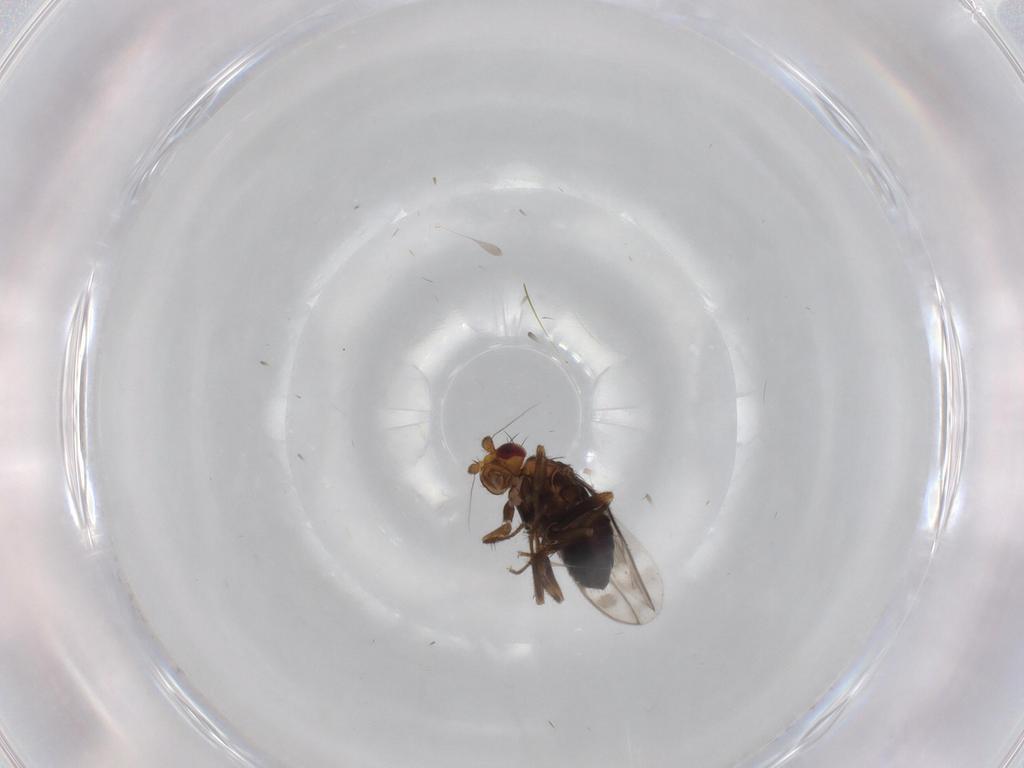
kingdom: Animalia
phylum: Arthropoda
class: Insecta
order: Diptera
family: Sphaeroceridae
